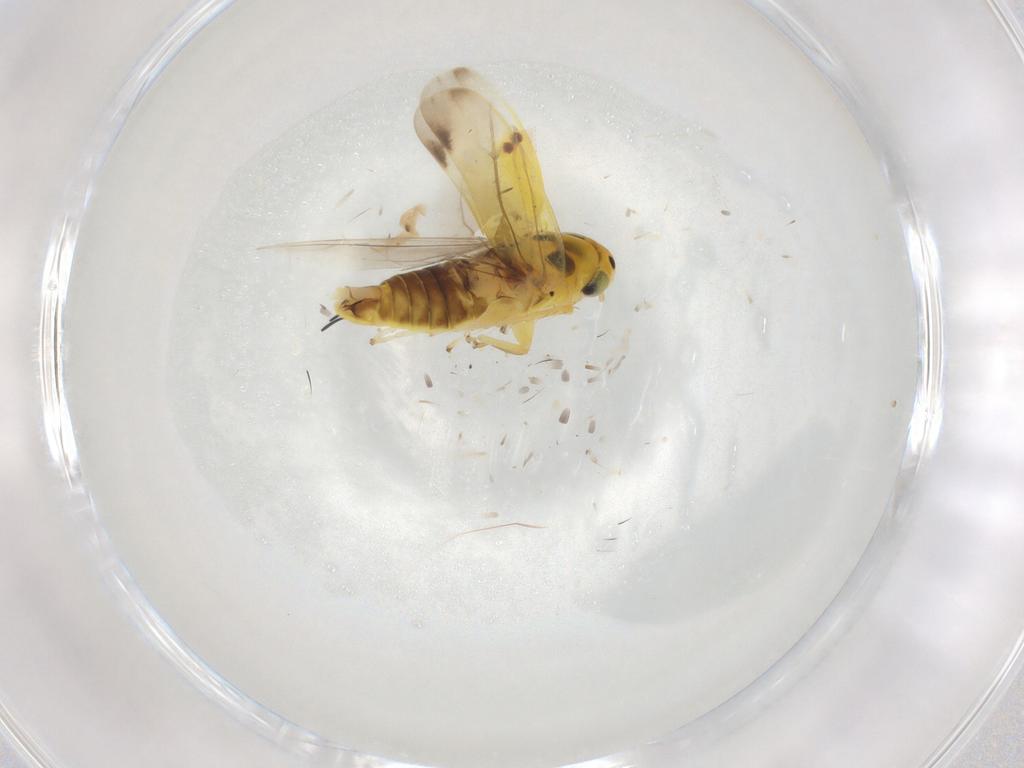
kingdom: Animalia
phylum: Arthropoda
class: Insecta
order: Hemiptera
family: Cicadellidae
